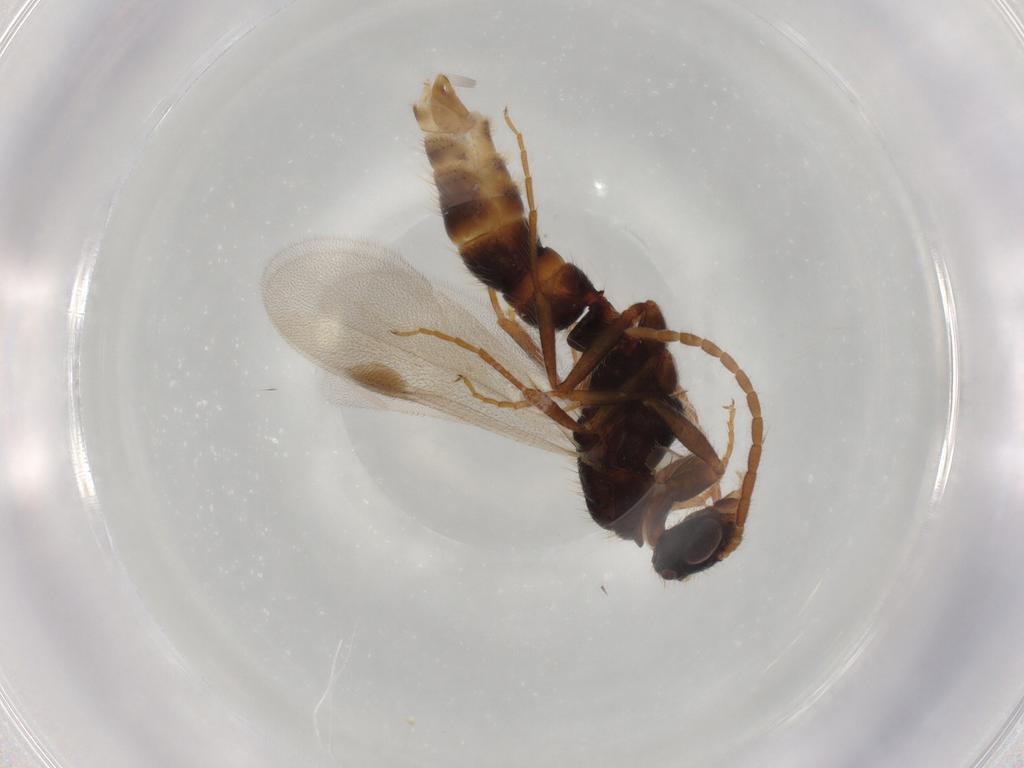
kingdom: Animalia
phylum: Arthropoda
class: Insecta
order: Hymenoptera
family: Formicidae
